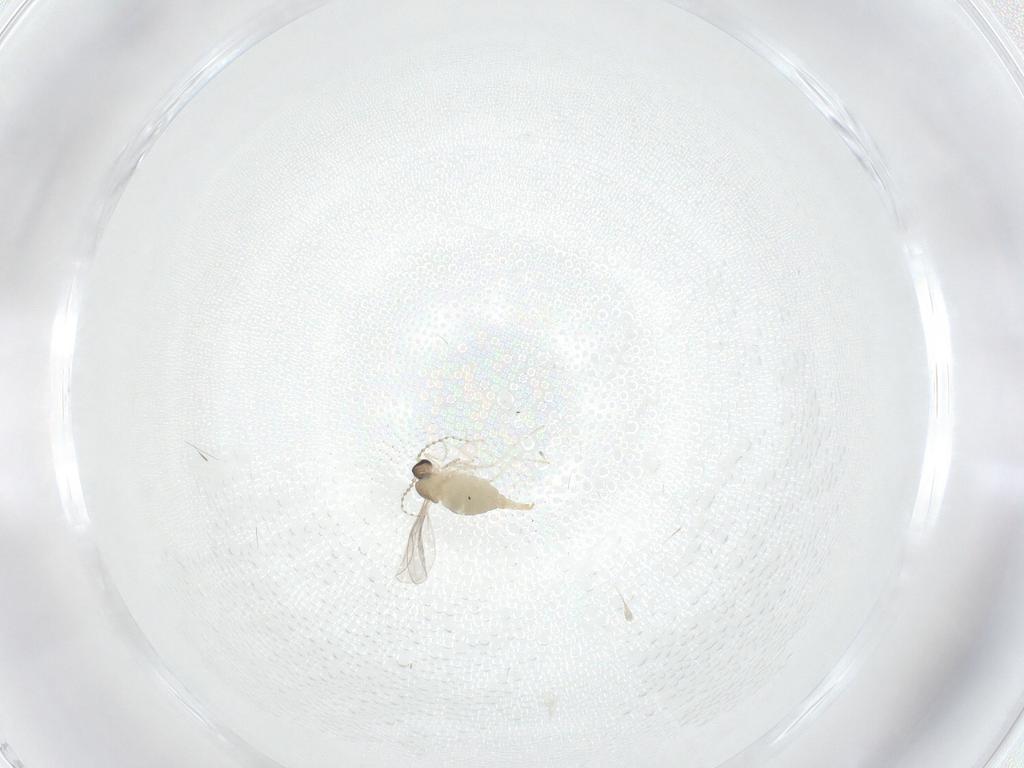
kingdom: Animalia
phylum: Arthropoda
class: Insecta
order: Diptera
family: Cecidomyiidae
